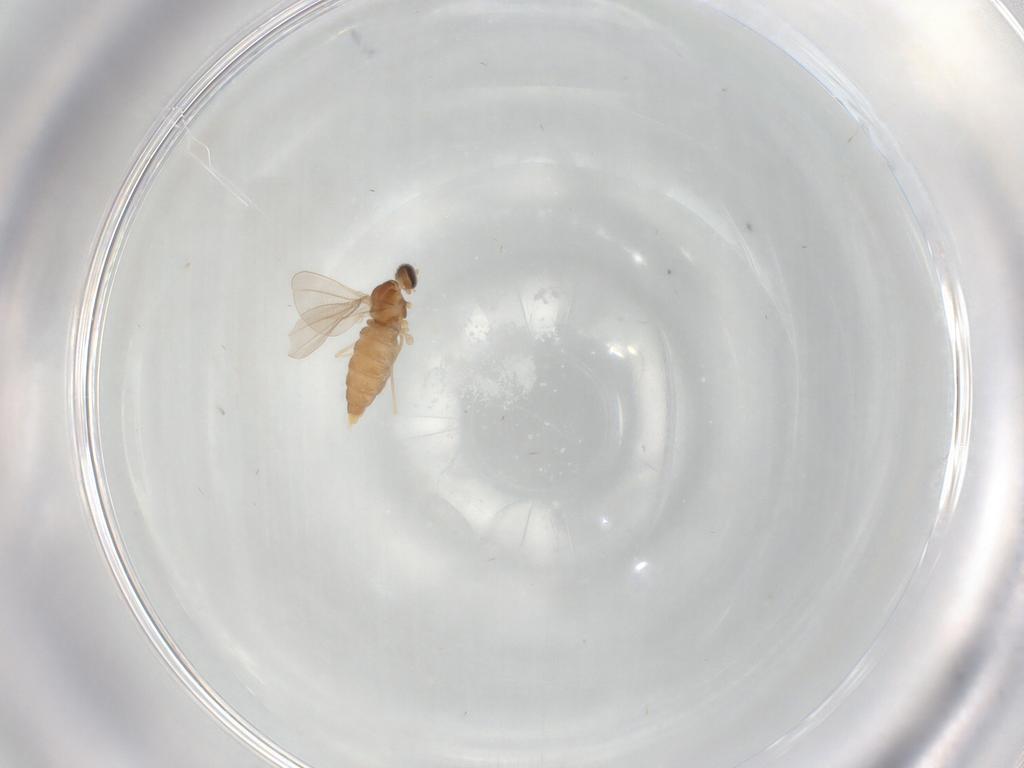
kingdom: Animalia
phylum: Arthropoda
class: Insecta
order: Diptera
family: Cecidomyiidae
